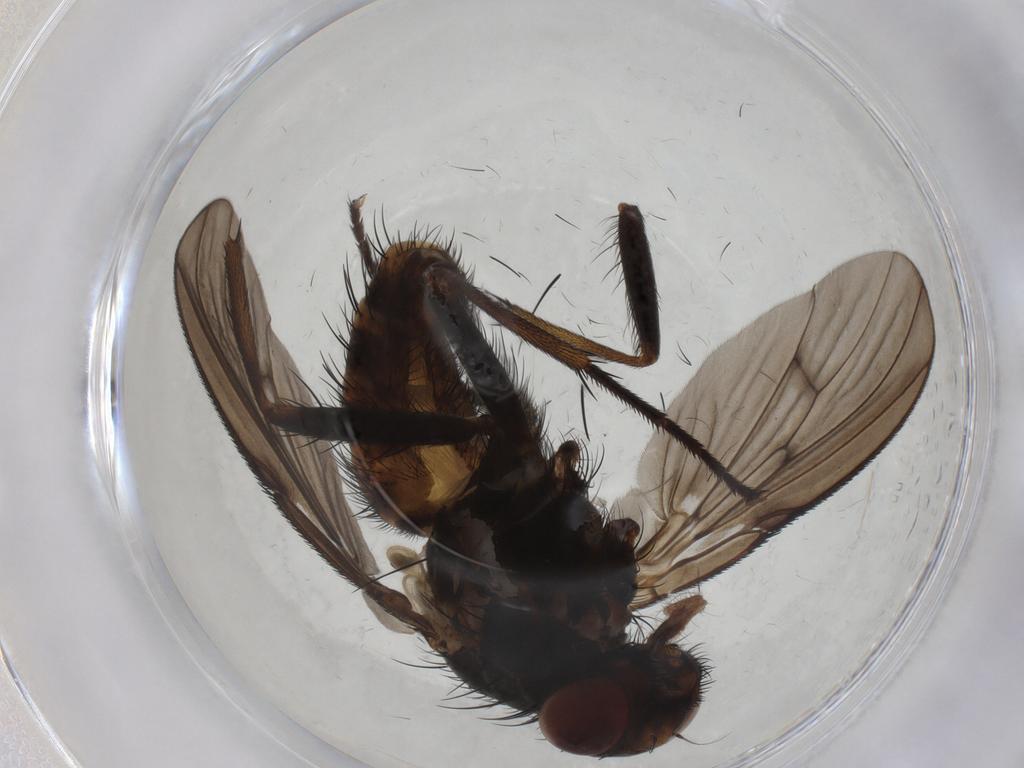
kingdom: Animalia
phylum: Arthropoda
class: Insecta
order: Diptera
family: Muscidae
